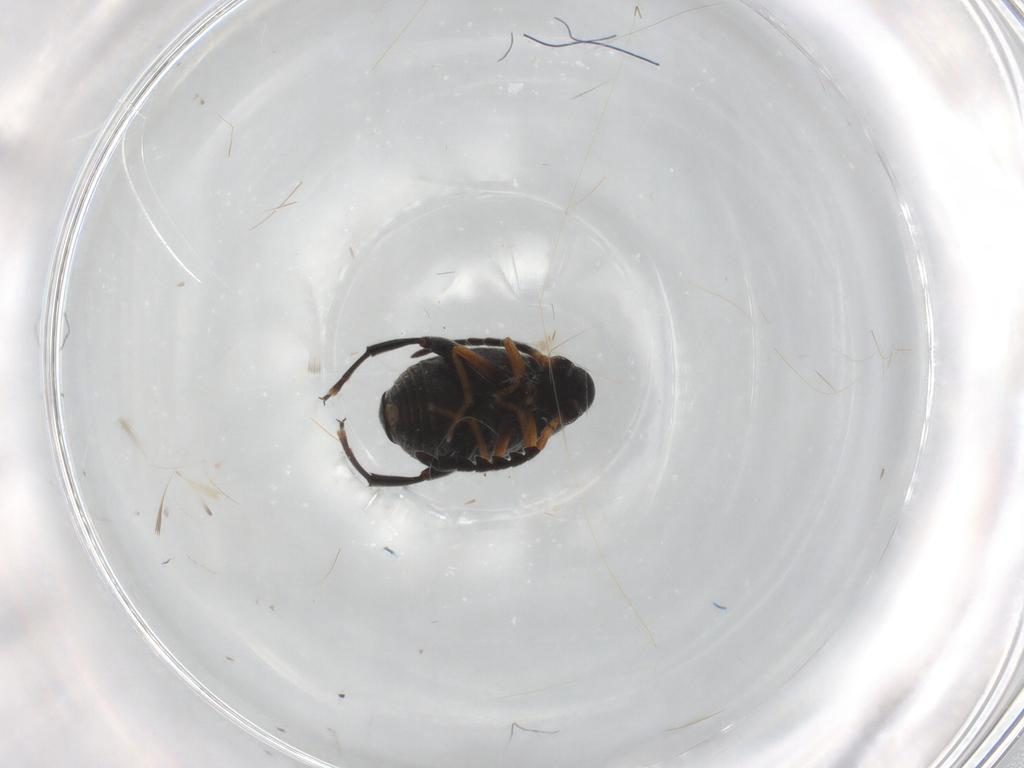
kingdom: Animalia
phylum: Arthropoda
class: Insecta
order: Coleoptera
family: Chrysomelidae
